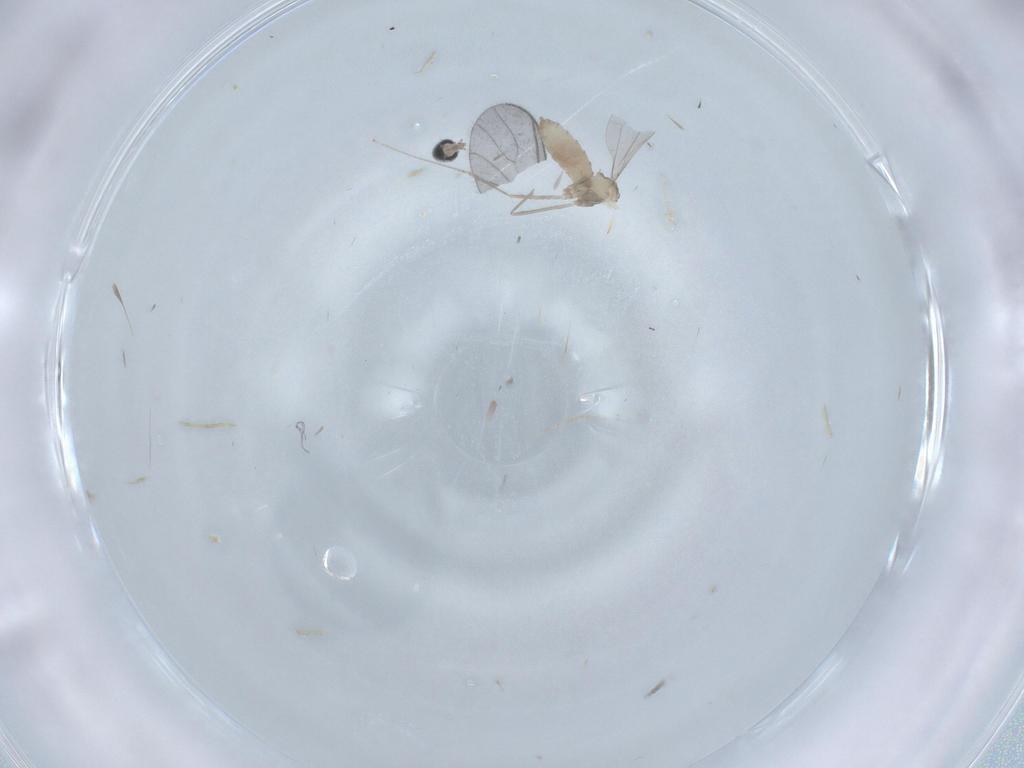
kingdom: Animalia
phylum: Arthropoda
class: Insecta
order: Diptera
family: Cecidomyiidae
